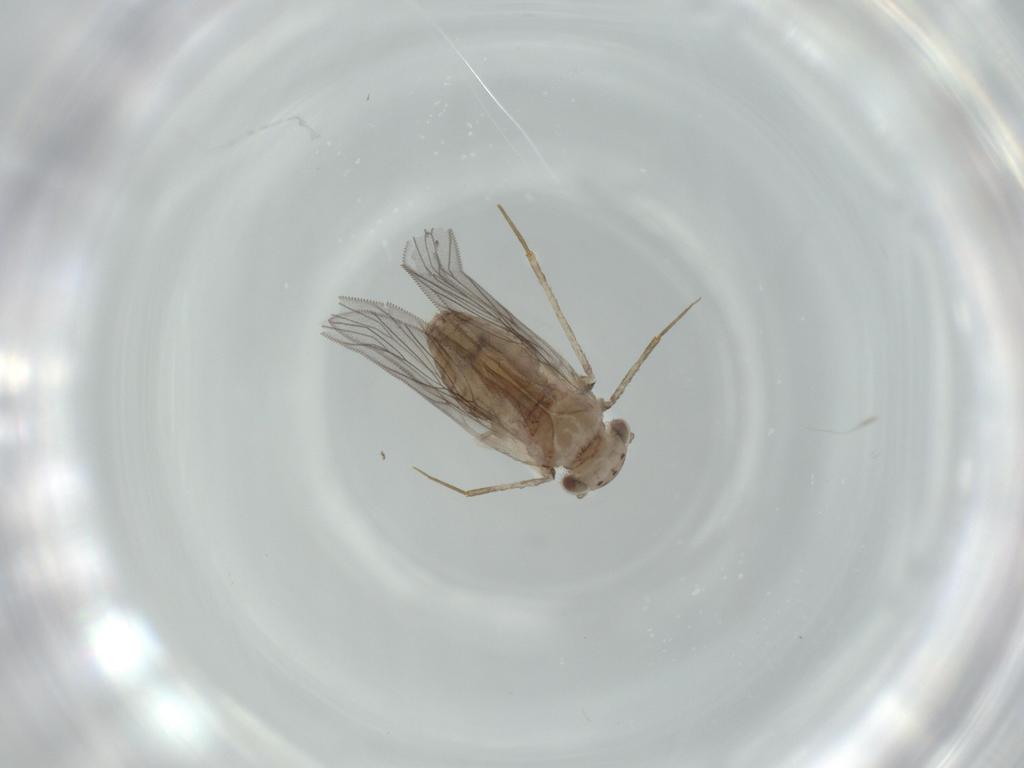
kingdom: Animalia
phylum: Arthropoda
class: Insecta
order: Psocodea
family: Lepidopsocidae
